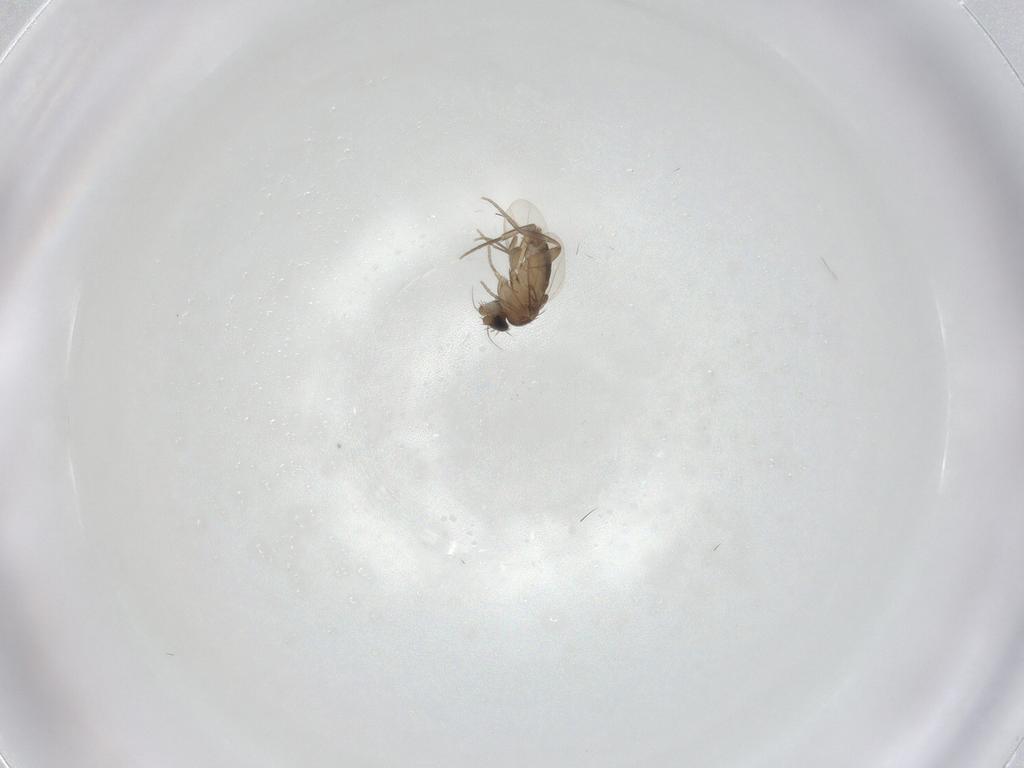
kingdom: Animalia
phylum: Arthropoda
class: Insecta
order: Diptera
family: Phoridae
